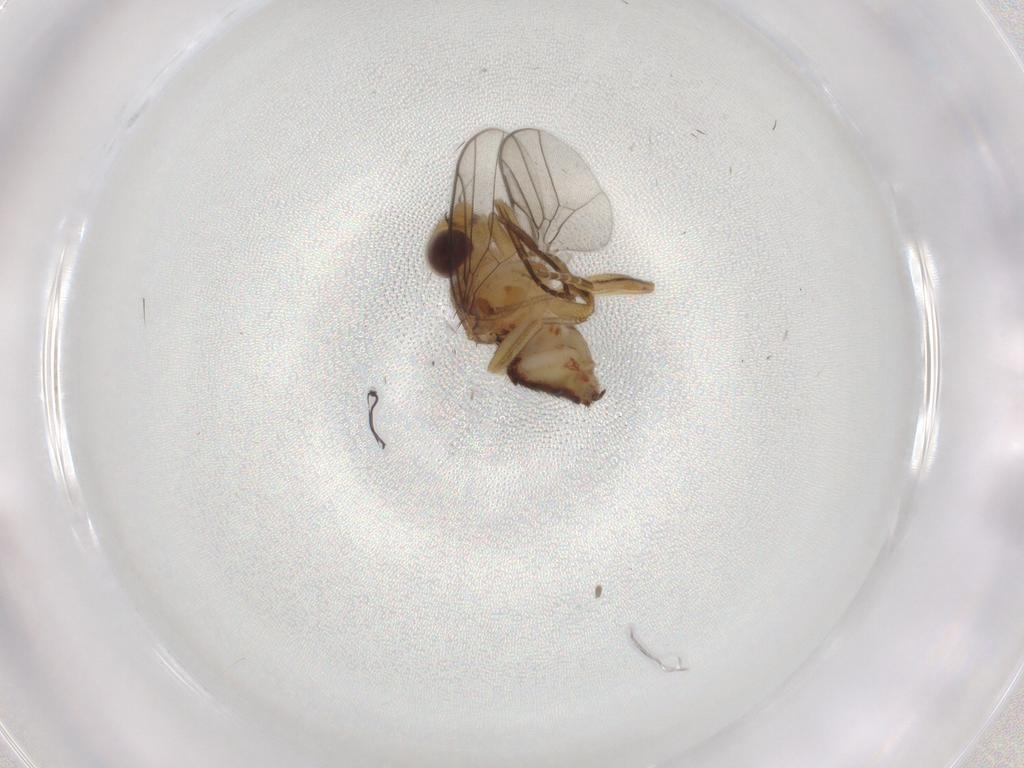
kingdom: Animalia
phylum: Arthropoda
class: Insecta
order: Diptera
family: Chloropidae
